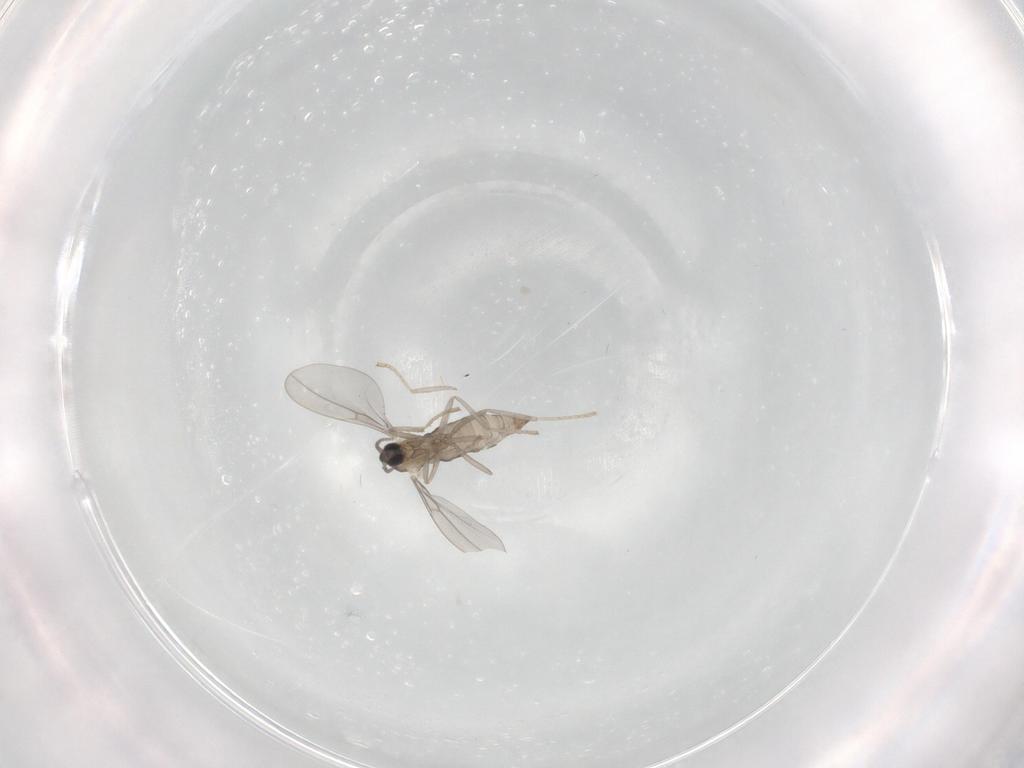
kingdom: Animalia
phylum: Arthropoda
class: Insecta
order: Diptera
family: Cecidomyiidae
